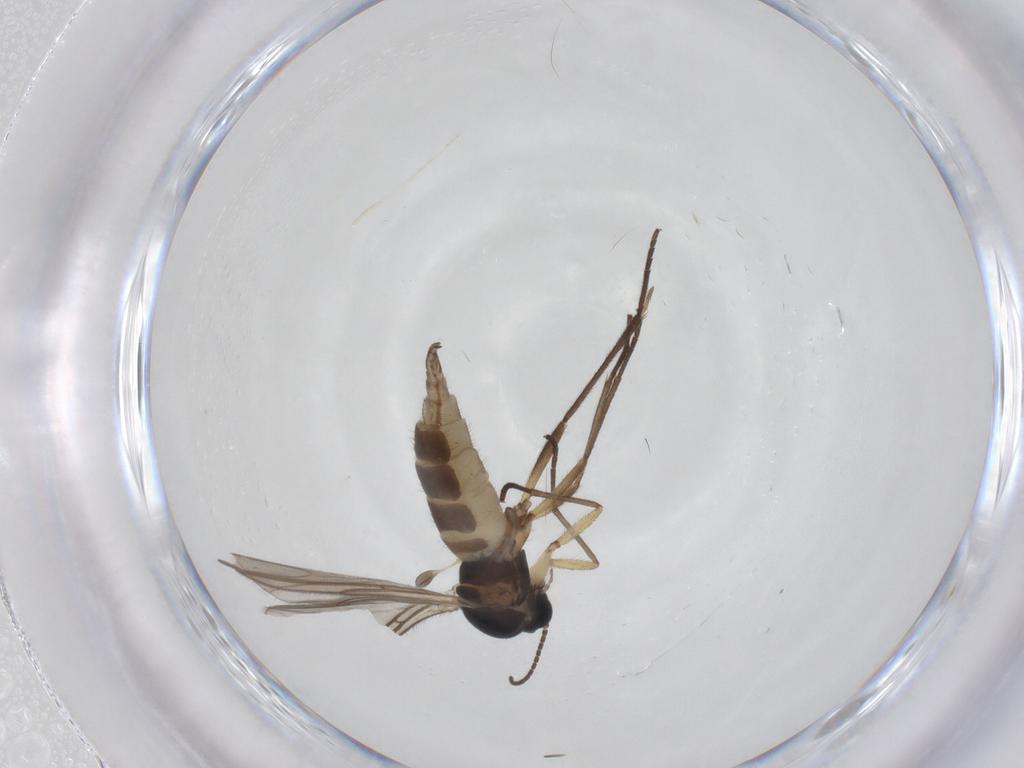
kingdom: Animalia
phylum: Arthropoda
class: Insecta
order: Diptera
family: Sciaridae
